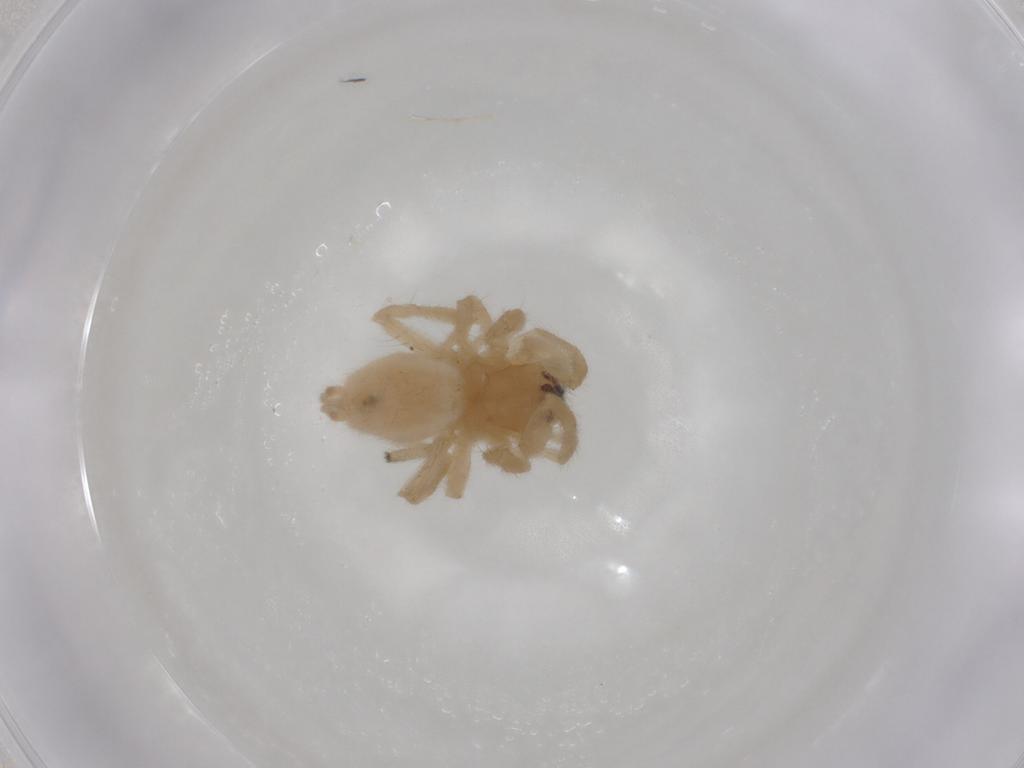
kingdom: Animalia
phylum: Arthropoda
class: Arachnida
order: Araneae
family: Cheiracanthiidae
